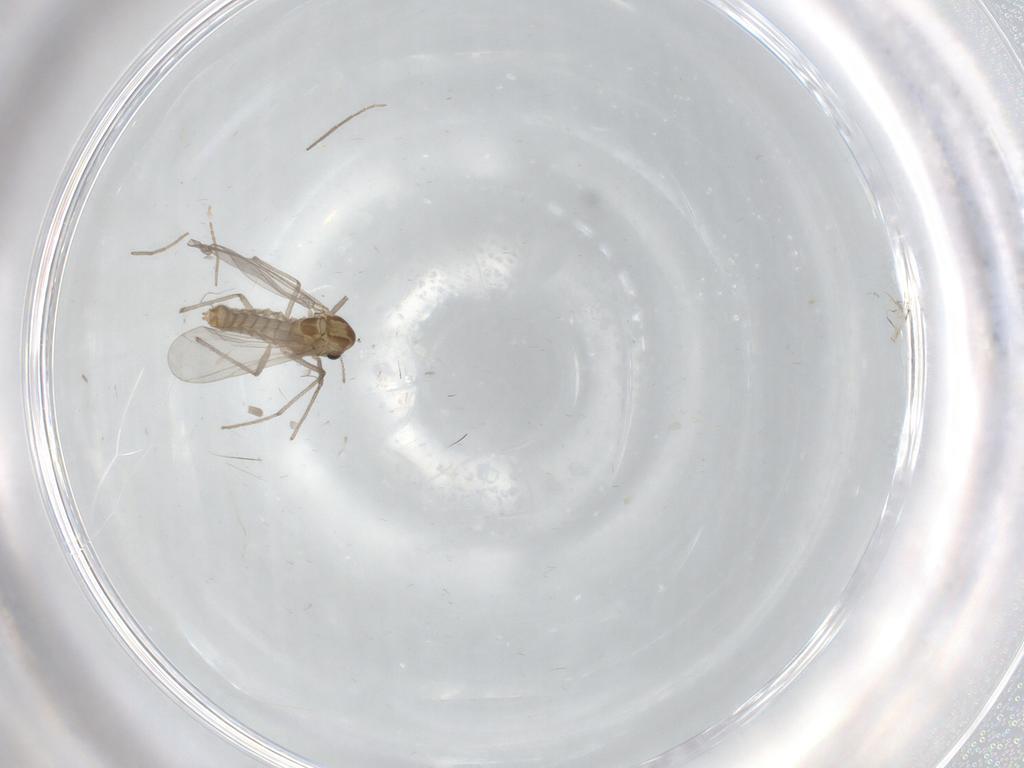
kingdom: Animalia
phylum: Arthropoda
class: Insecta
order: Diptera
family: Chironomidae
